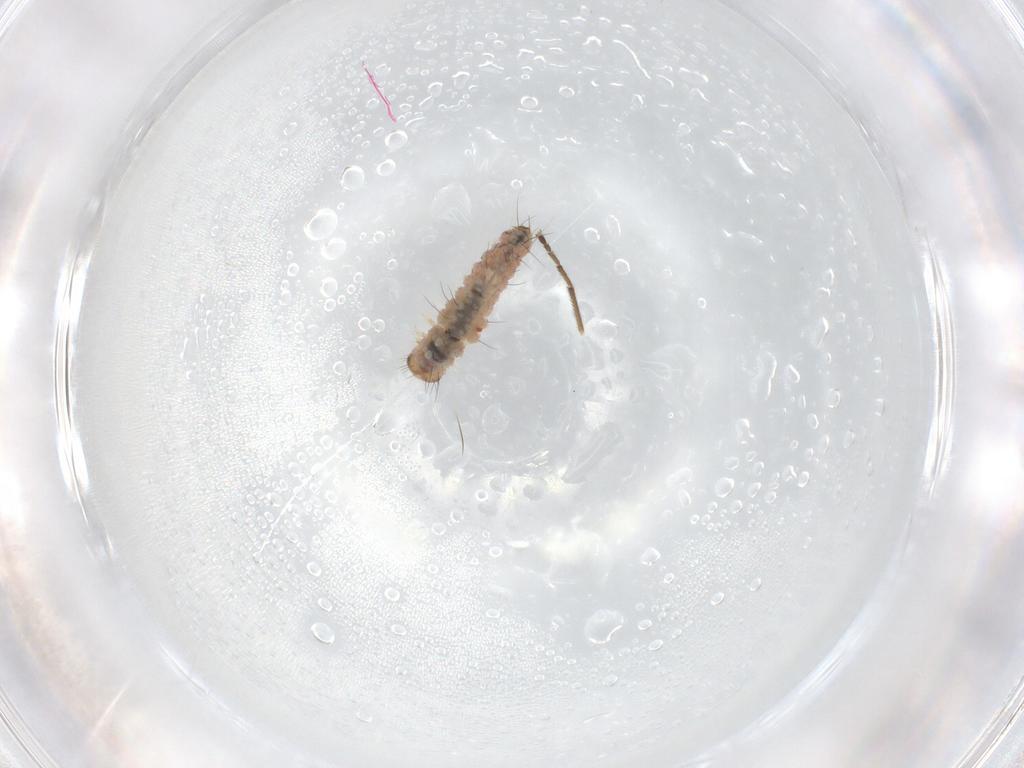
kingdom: Animalia
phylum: Arthropoda
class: Insecta
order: Lepidoptera
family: Erebidae
